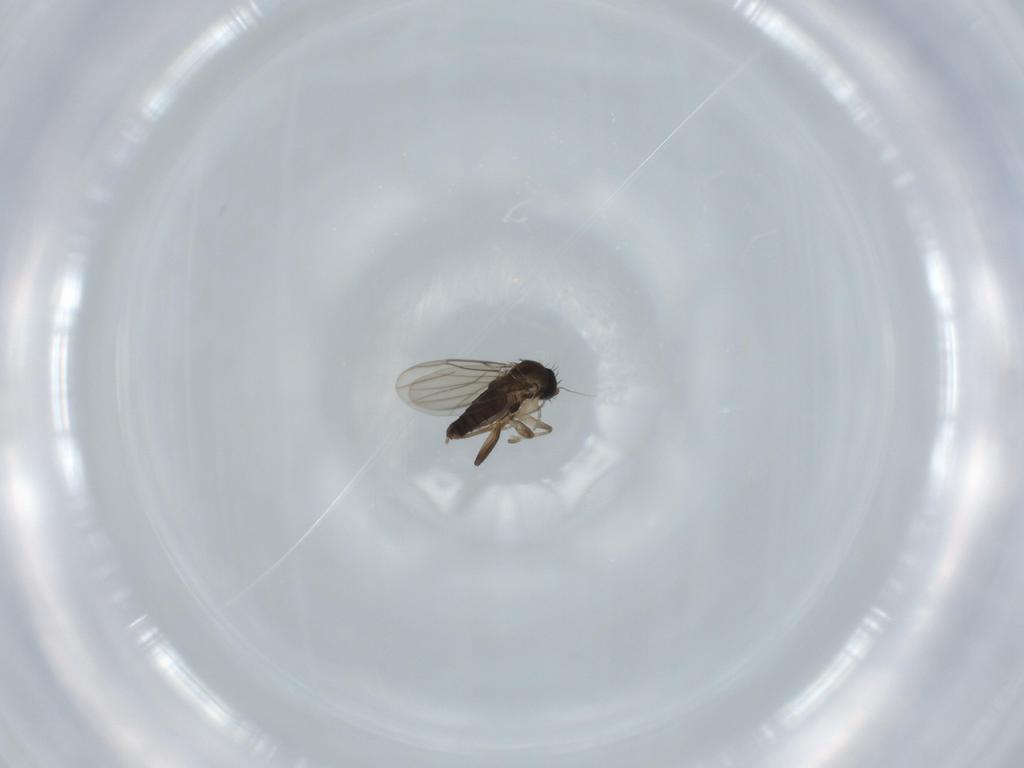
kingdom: Animalia
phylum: Arthropoda
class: Insecta
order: Diptera
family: Phoridae
